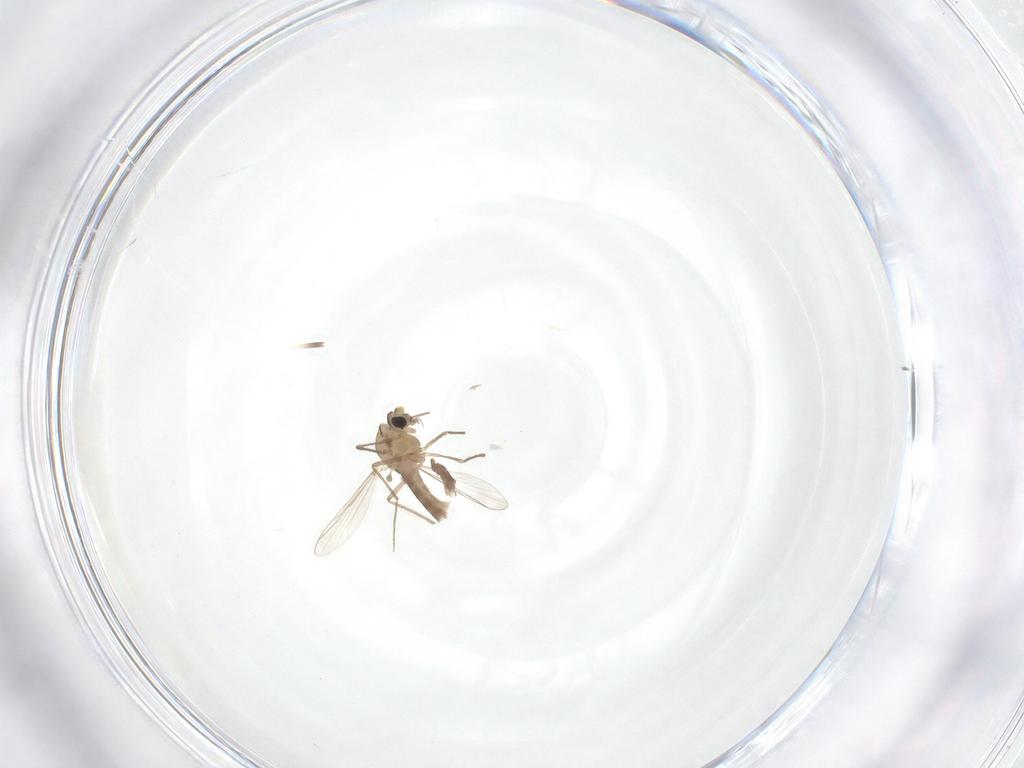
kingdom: Animalia
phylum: Arthropoda
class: Insecta
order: Diptera
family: Chironomidae
